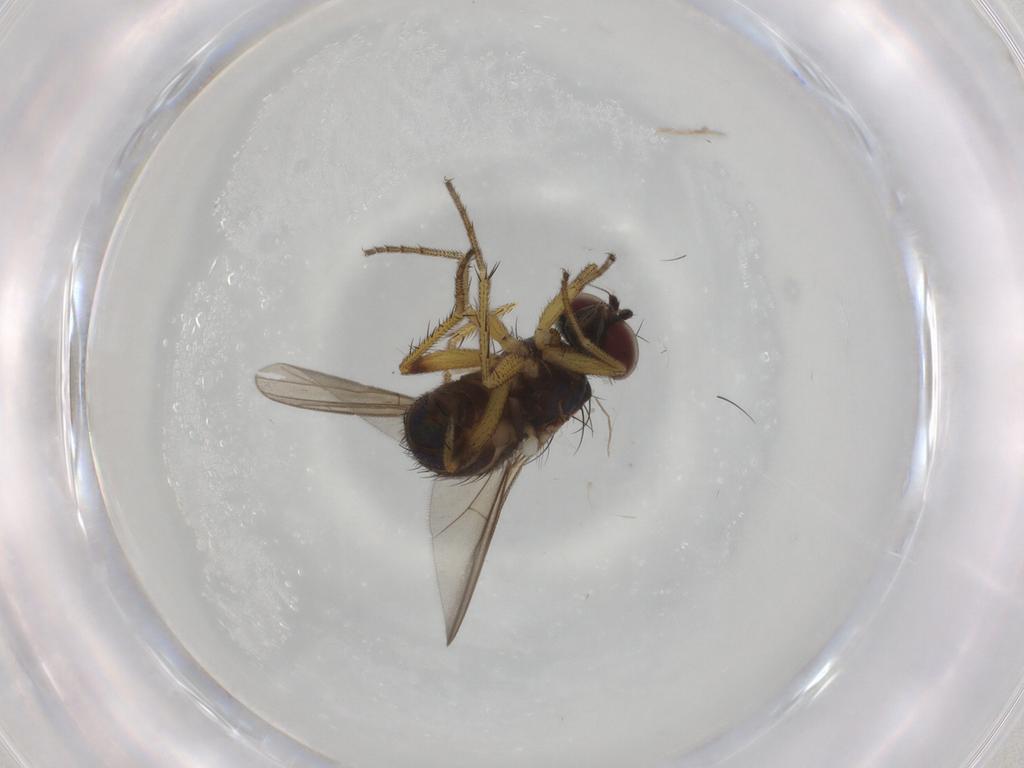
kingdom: Animalia
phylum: Arthropoda
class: Insecta
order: Diptera
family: Dolichopodidae
